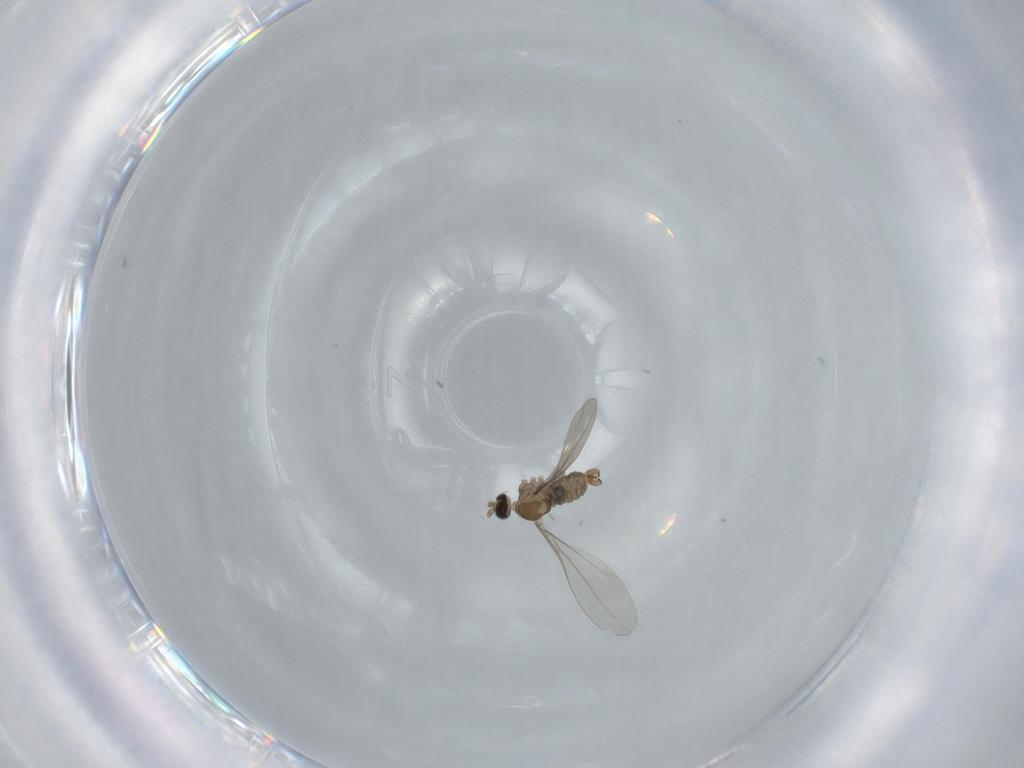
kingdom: Animalia
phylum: Arthropoda
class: Insecta
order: Diptera
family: Cecidomyiidae
